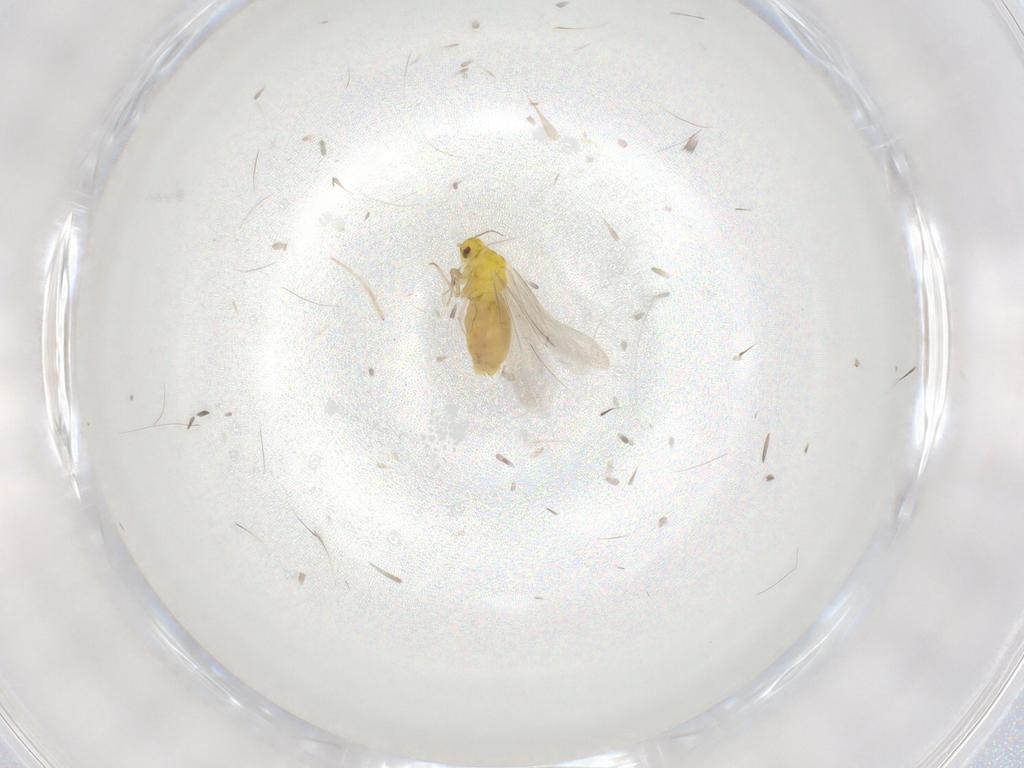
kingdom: Animalia
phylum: Arthropoda
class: Insecta
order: Hemiptera
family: Aleyrodidae
